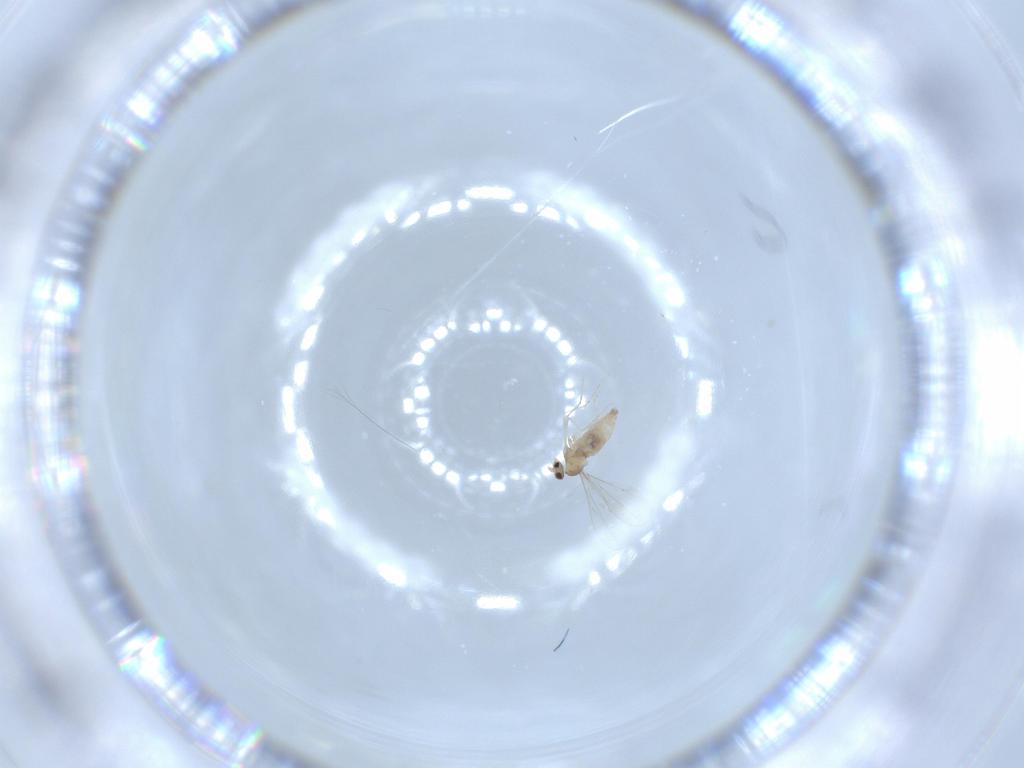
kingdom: Animalia
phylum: Arthropoda
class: Insecta
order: Diptera
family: Cecidomyiidae
